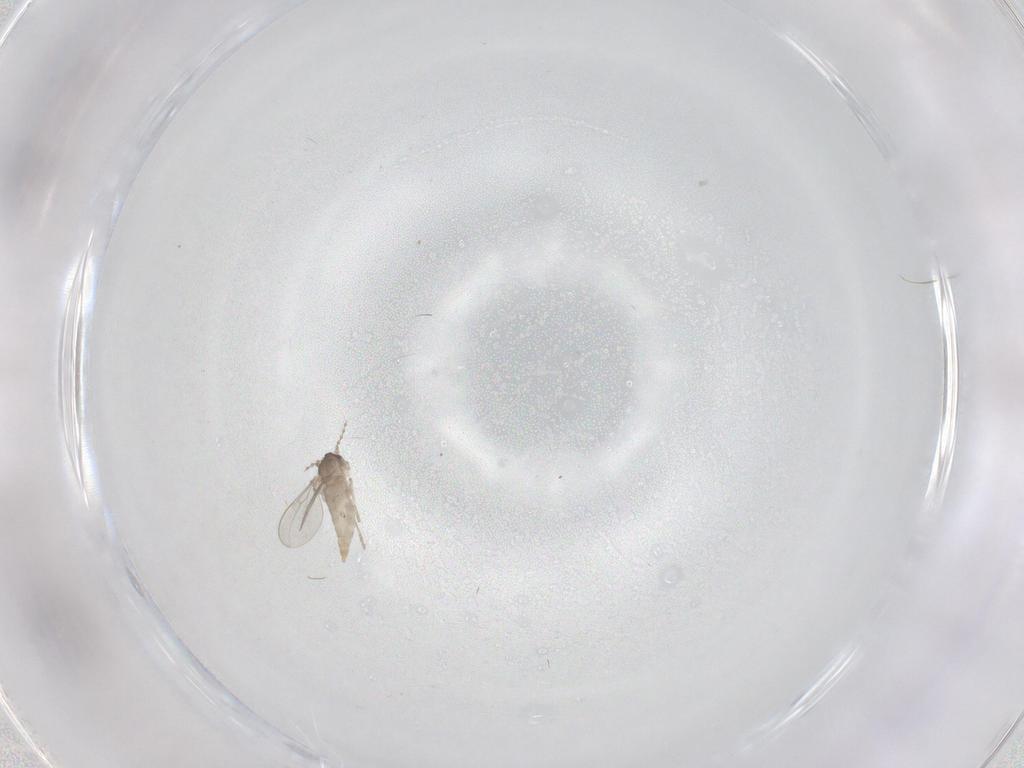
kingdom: Animalia
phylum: Arthropoda
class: Insecta
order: Diptera
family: Cecidomyiidae
